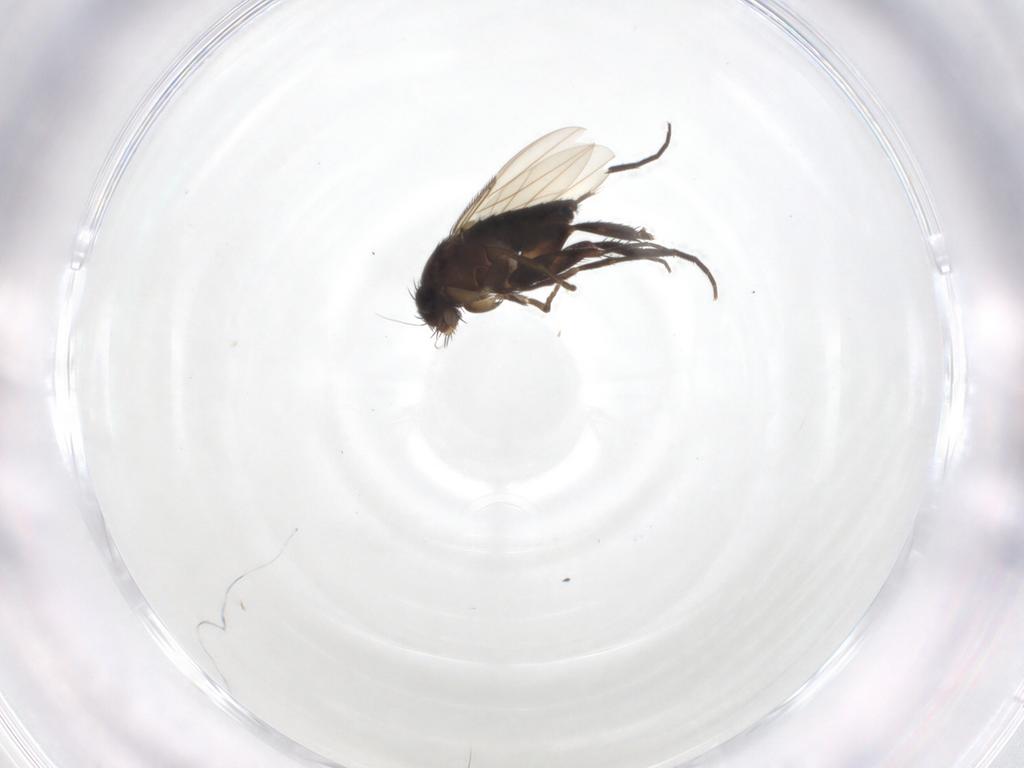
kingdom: Animalia
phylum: Arthropoda
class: Insecta
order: Diptera
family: Phoridae
